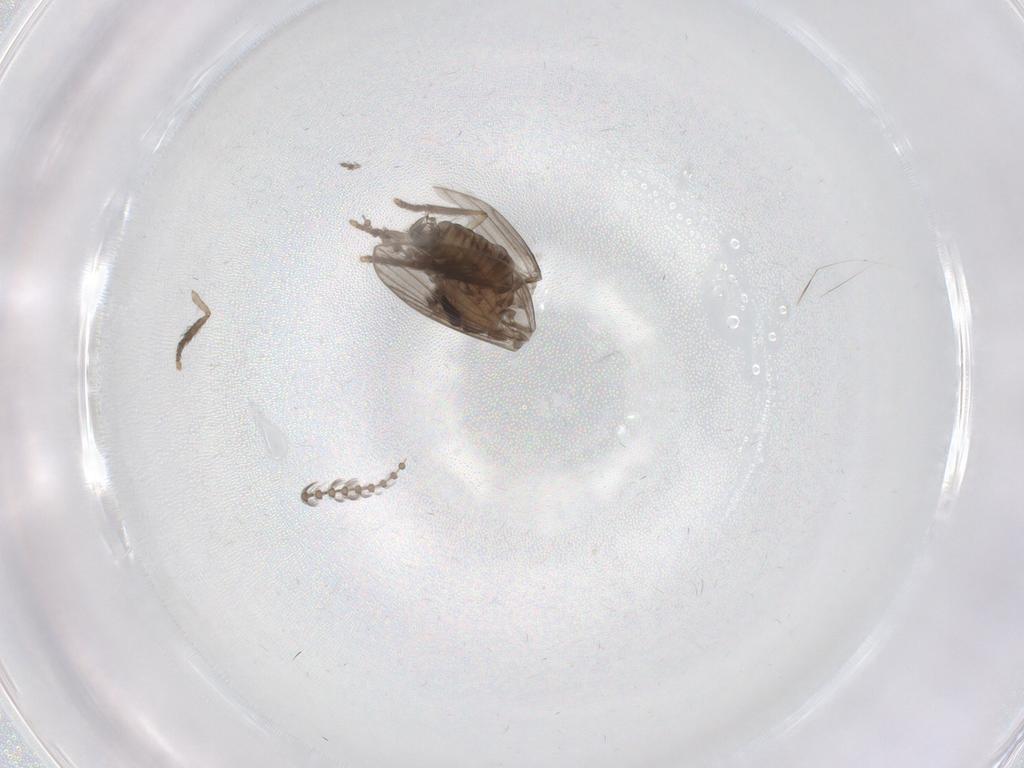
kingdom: Animalia
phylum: Arthropoda
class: Insecta
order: Diptera
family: Psychodidae
